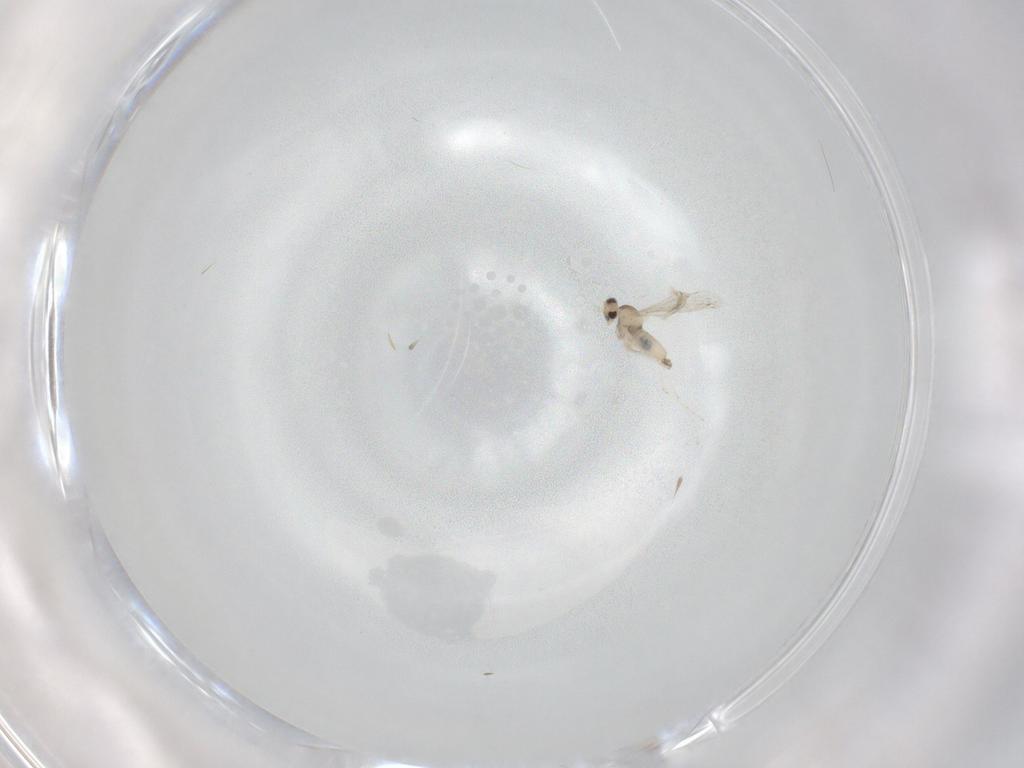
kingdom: Animalia
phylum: Arthropoda
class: Insecta
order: Diptera
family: Cecidomyiidae
